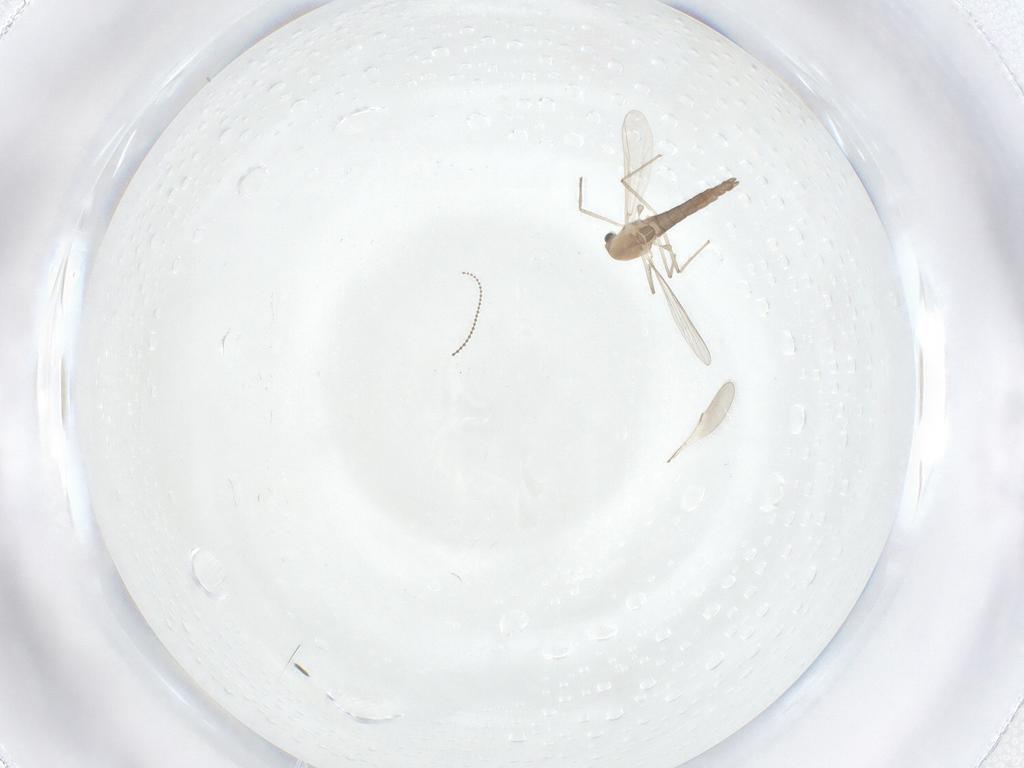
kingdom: Animalia
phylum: Arthropoda
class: Insecta
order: Diptera
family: Chironomidae
